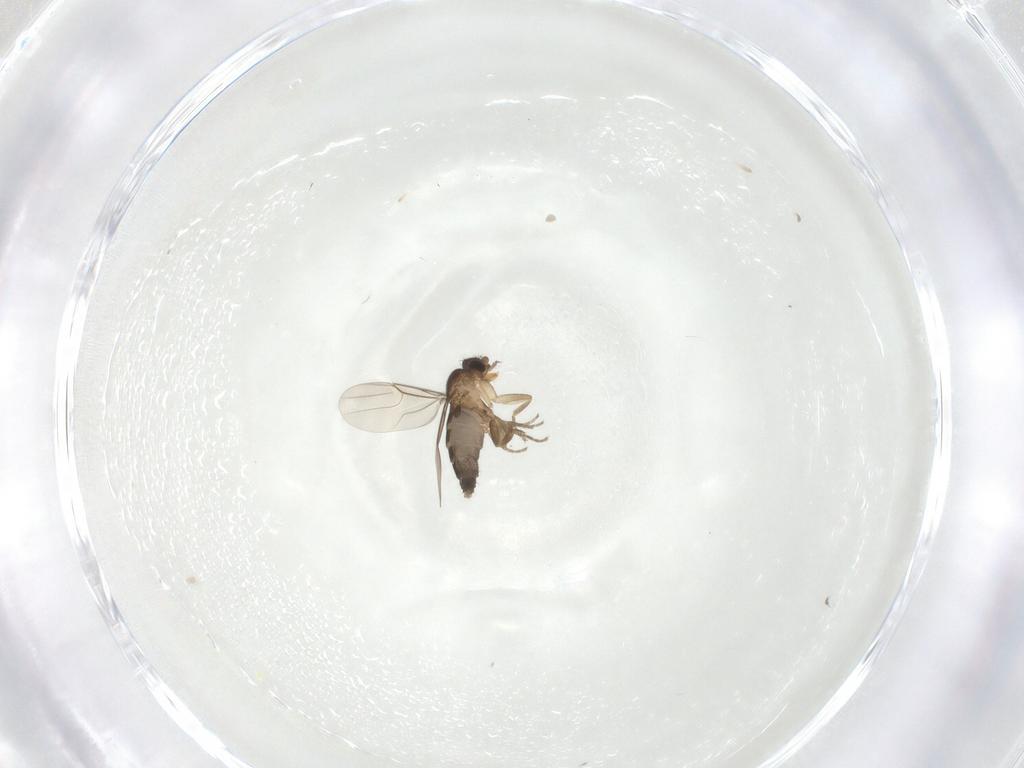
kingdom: Animalia
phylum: Arthropoda
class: Insecta
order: Diptera
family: Phoridae
